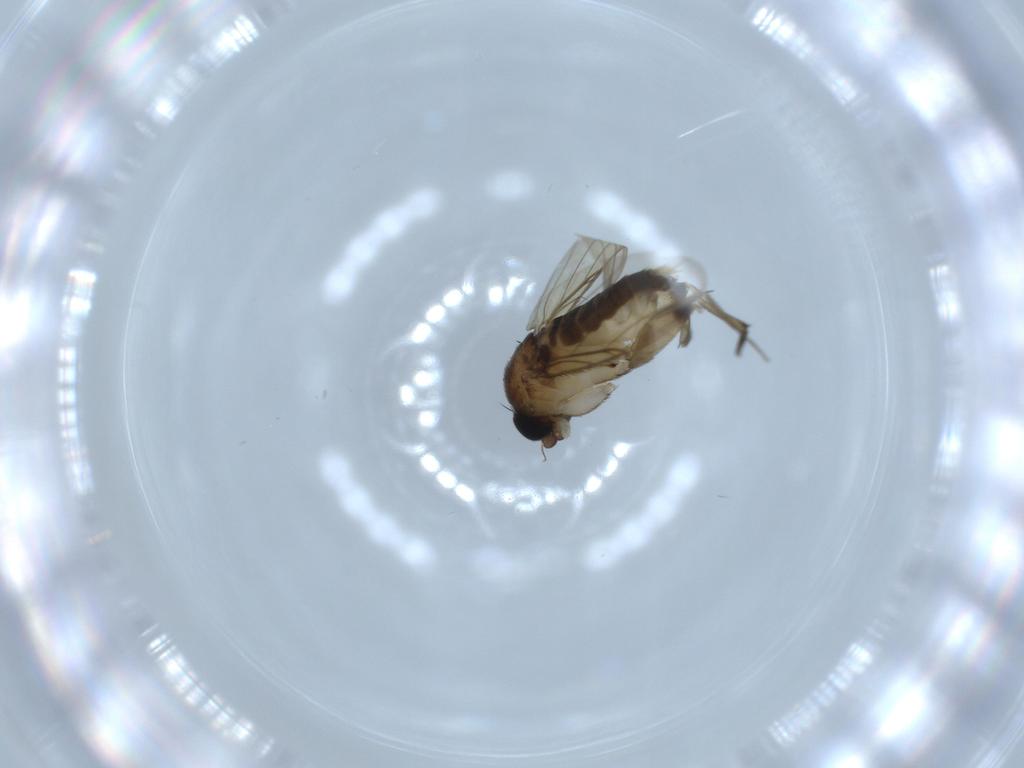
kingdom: Animalia
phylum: Arthropoda
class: Insecta
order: Diptera
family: Phoridae
